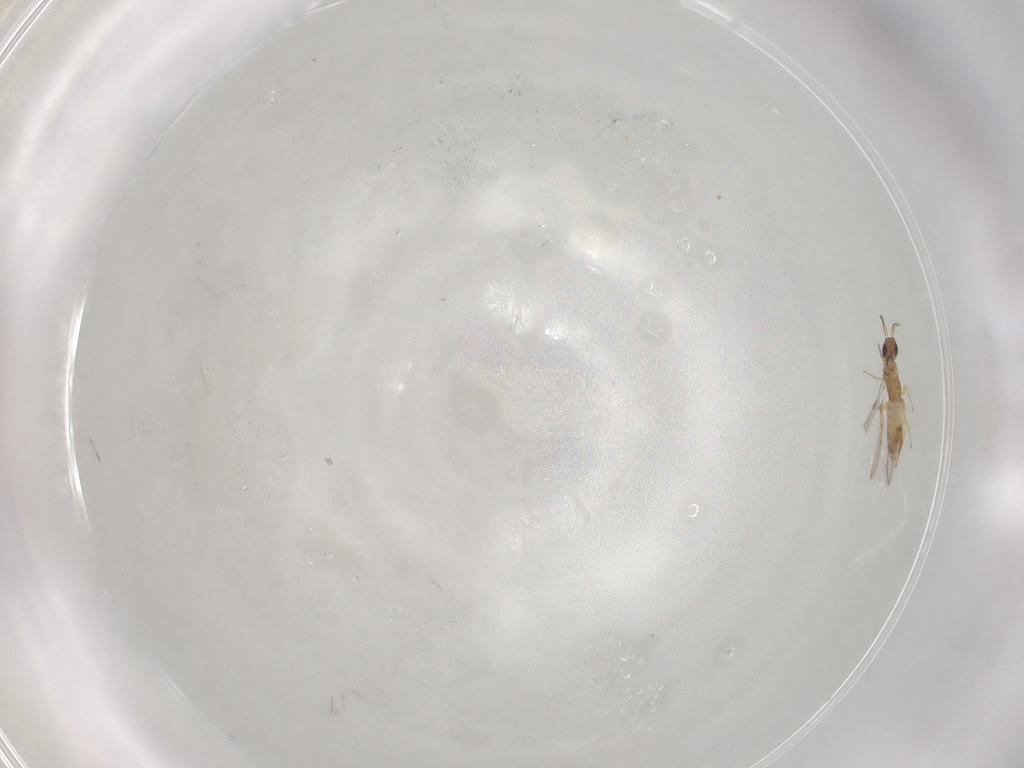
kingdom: Animalia
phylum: Arthropoda
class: Insecta
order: Hymenoptera
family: Mymaridae
